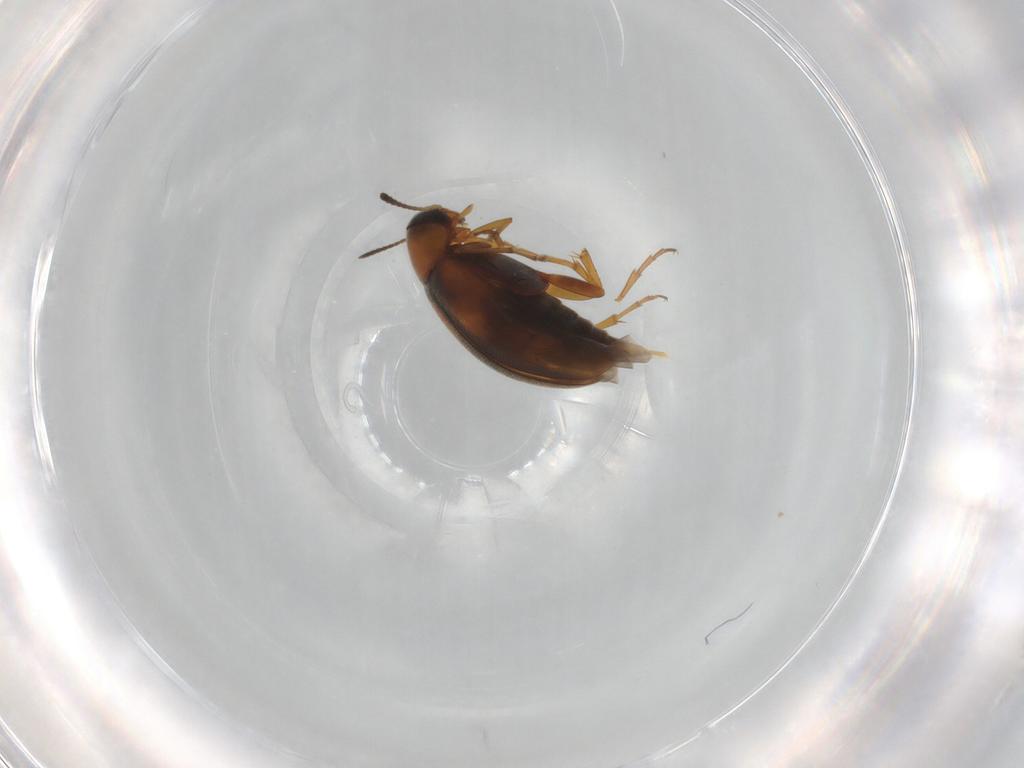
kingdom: Animalia
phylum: Arthropoda
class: Insecta
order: Coleoptera
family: Scraptiidae
